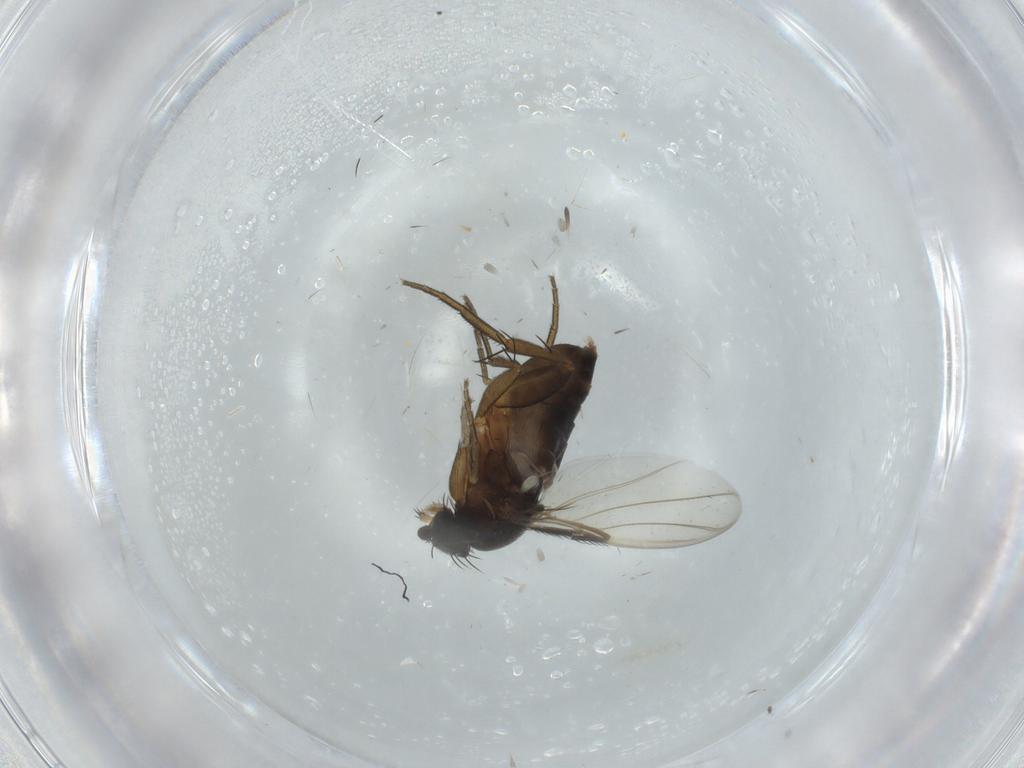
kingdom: Animalia
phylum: Arthropoda
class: Insecta
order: Diptera
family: Phoridae
